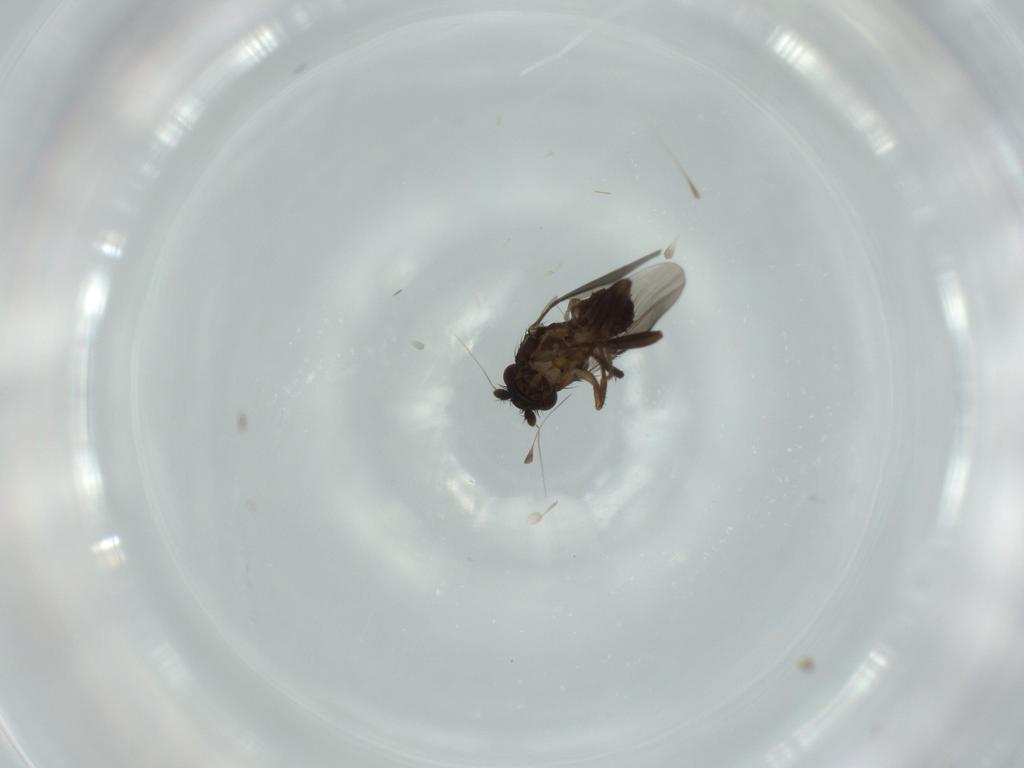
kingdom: Animalia
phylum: Arthropoda
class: Insecta
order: Diptera
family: Sphaeroceridae
